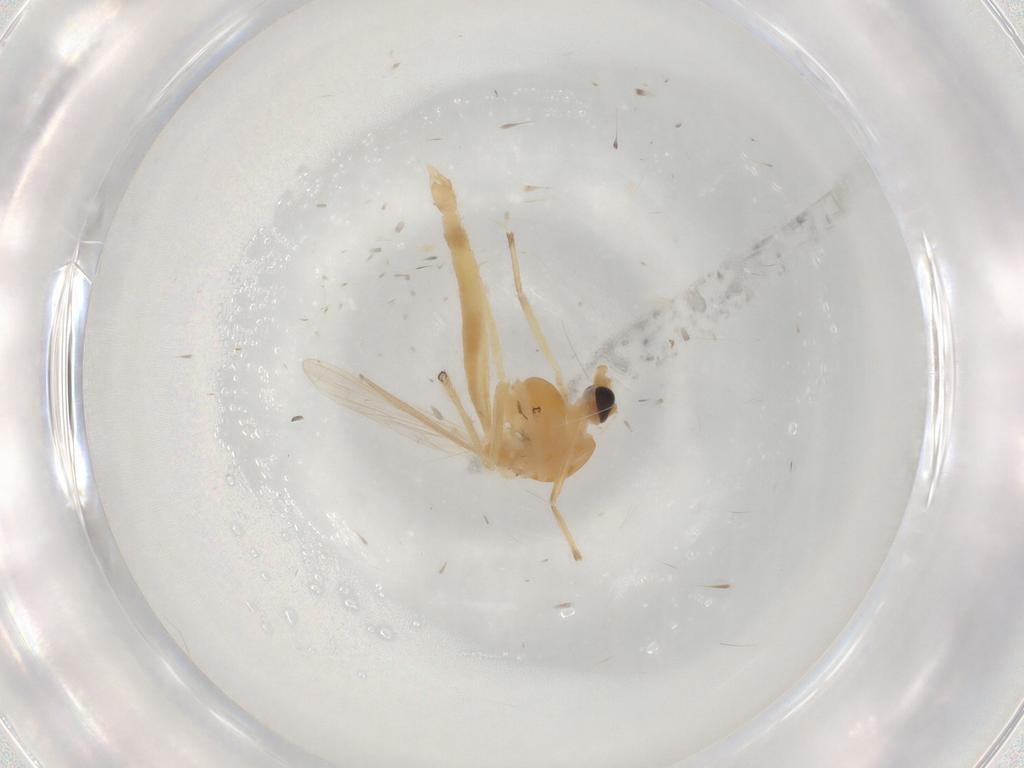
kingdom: Animalia
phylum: Arthropoda
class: Insecta
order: Diptera
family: Chironomidae
